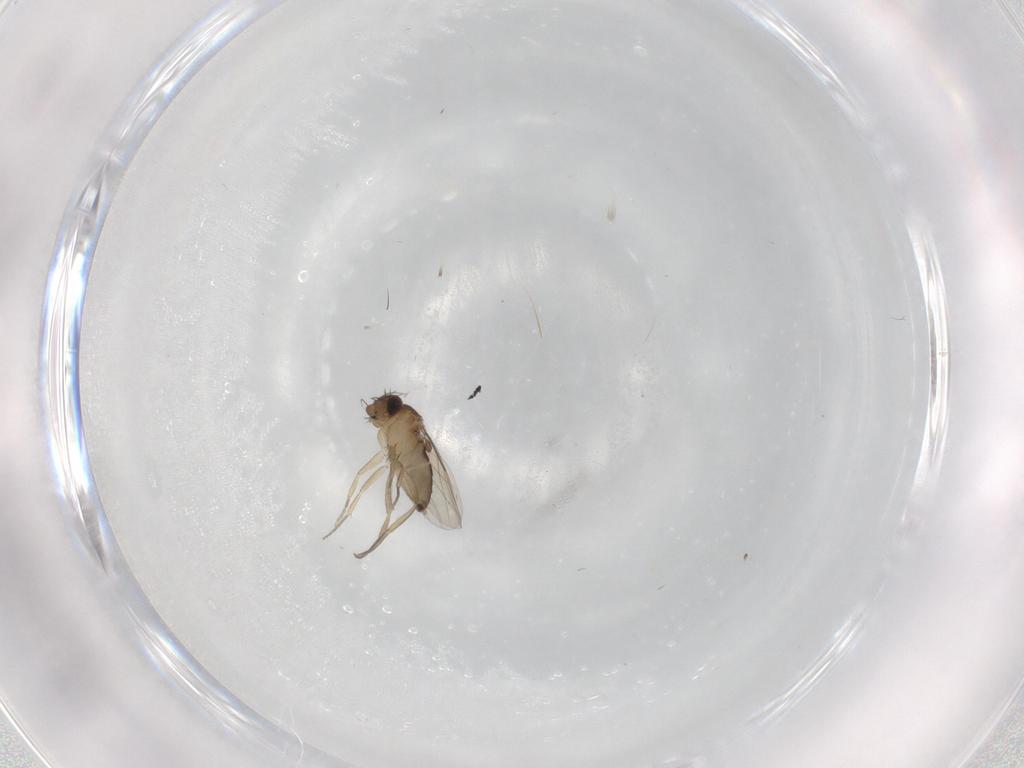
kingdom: Animalia
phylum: Arthropoda
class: Insecta
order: Diptera
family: Phoridae
